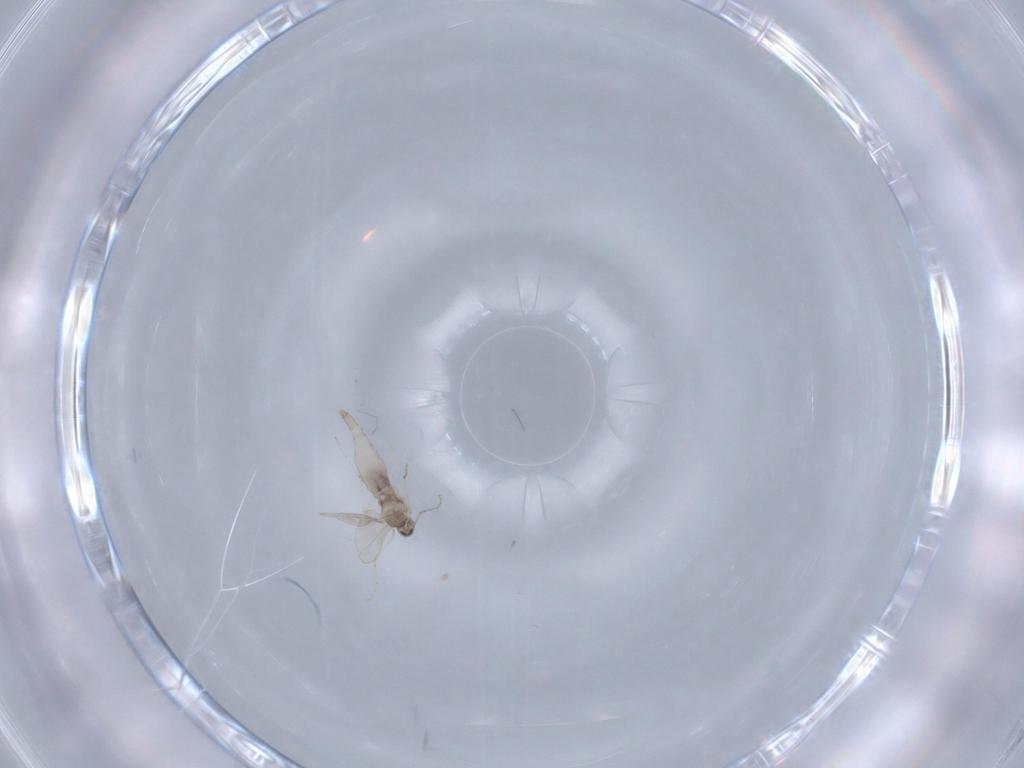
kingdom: Animalia
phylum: Arthropoda
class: Insecta
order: Diptera
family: Cecidomyiidae
